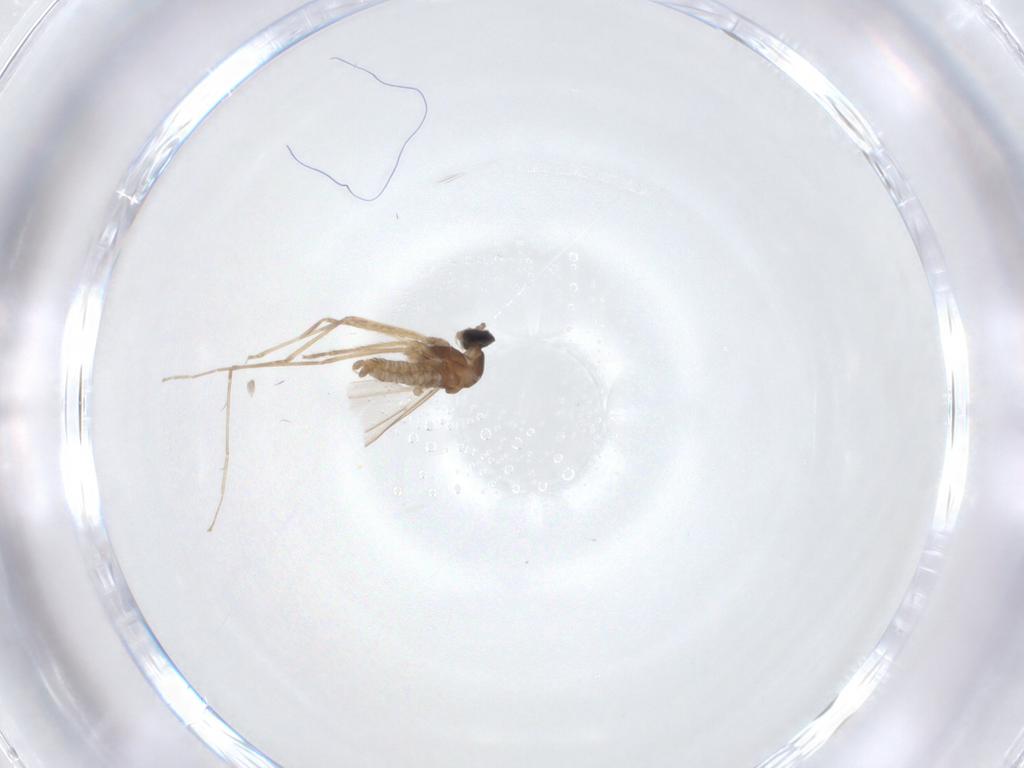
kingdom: Animalia
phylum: Arthropoda
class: Insecta
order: Diptera
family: Cecidomyiidae
